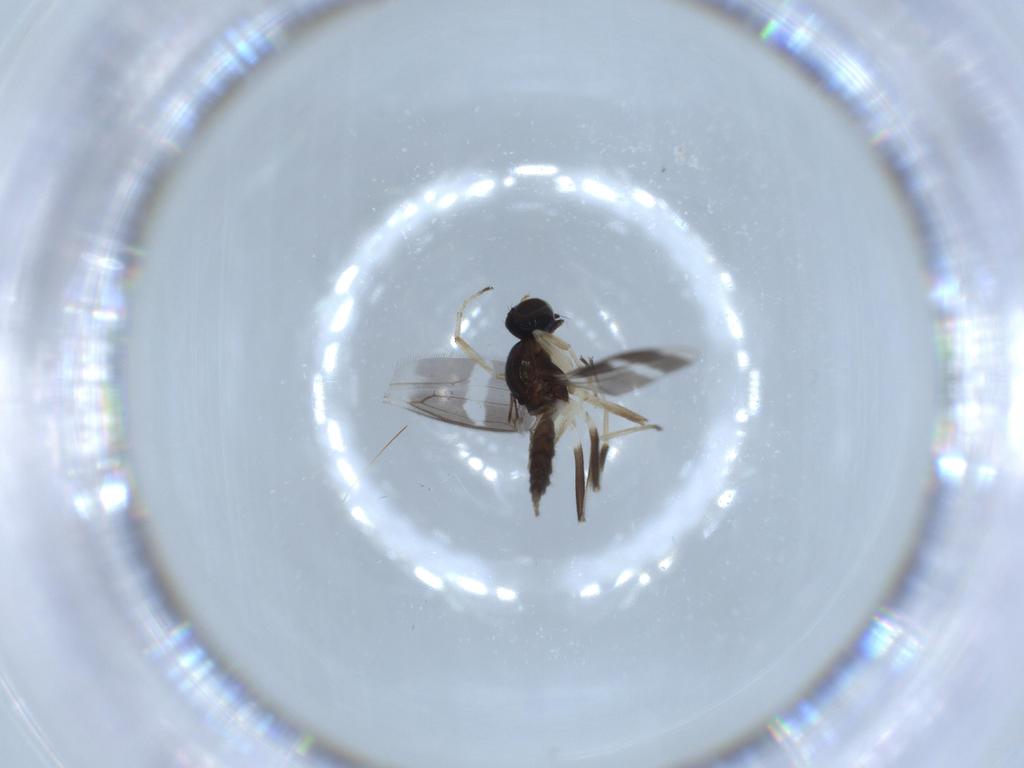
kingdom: Animalia
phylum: Arthropoda
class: Insecta
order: Diptera
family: Hybotidae
